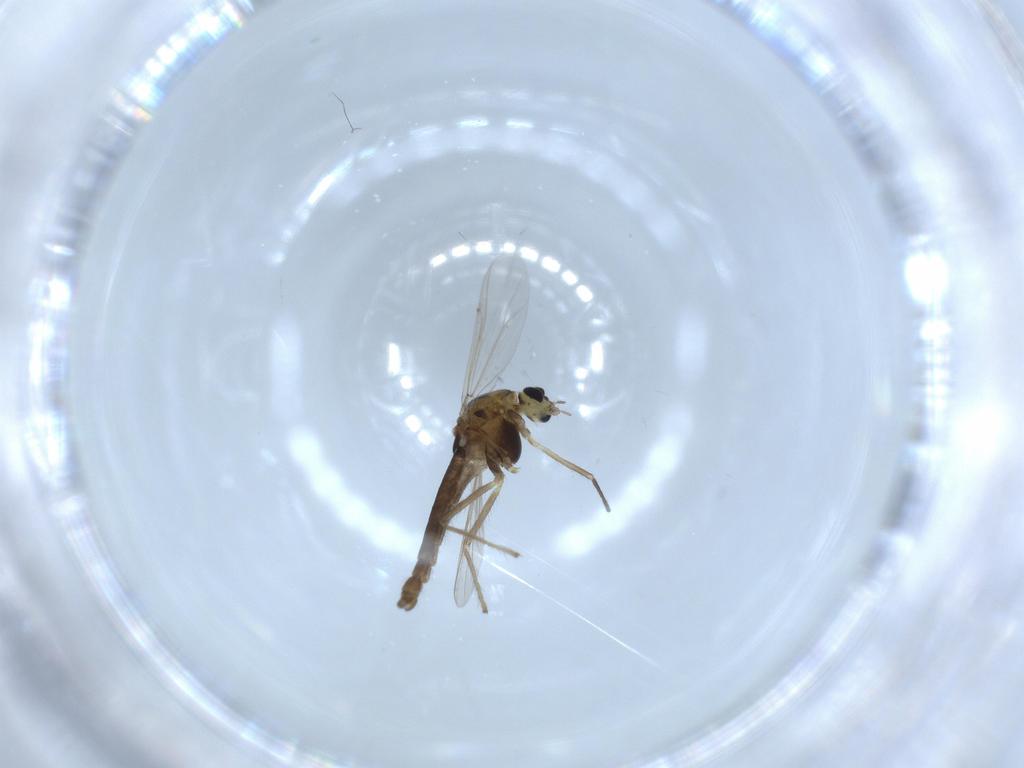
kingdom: Animalia
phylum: Arthropoda
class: Insecta
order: Diptera
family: Chironomidae
